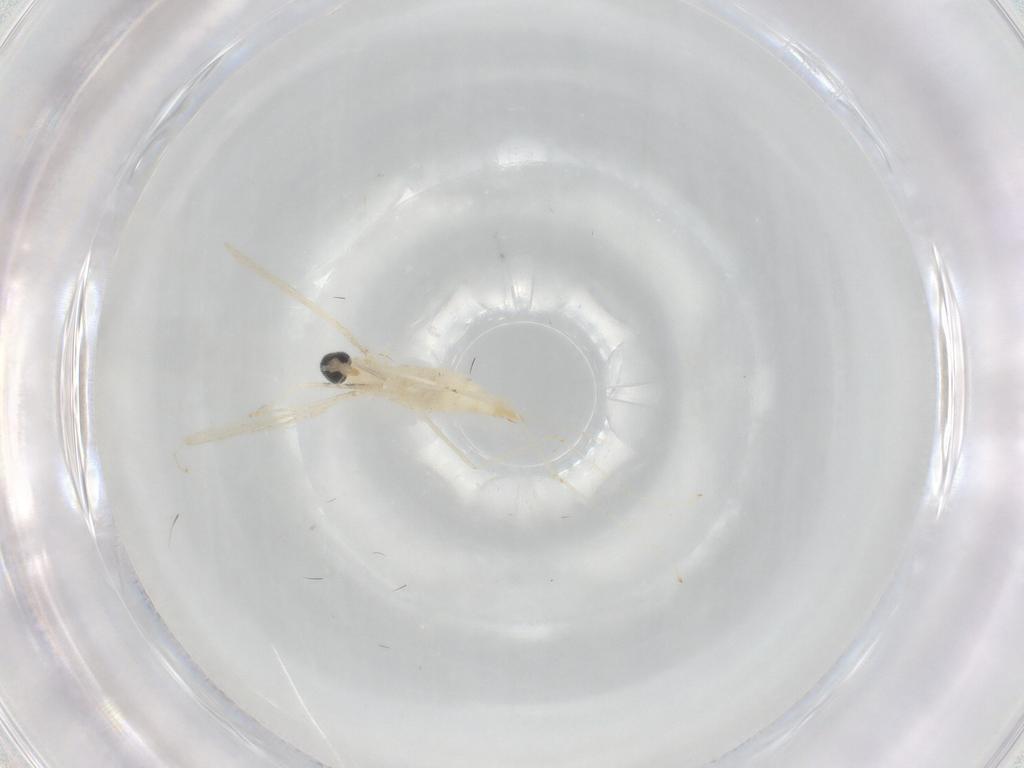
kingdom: Animalia
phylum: Arthropoda
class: Insecta
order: Diptera
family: Cecidomyiidae
